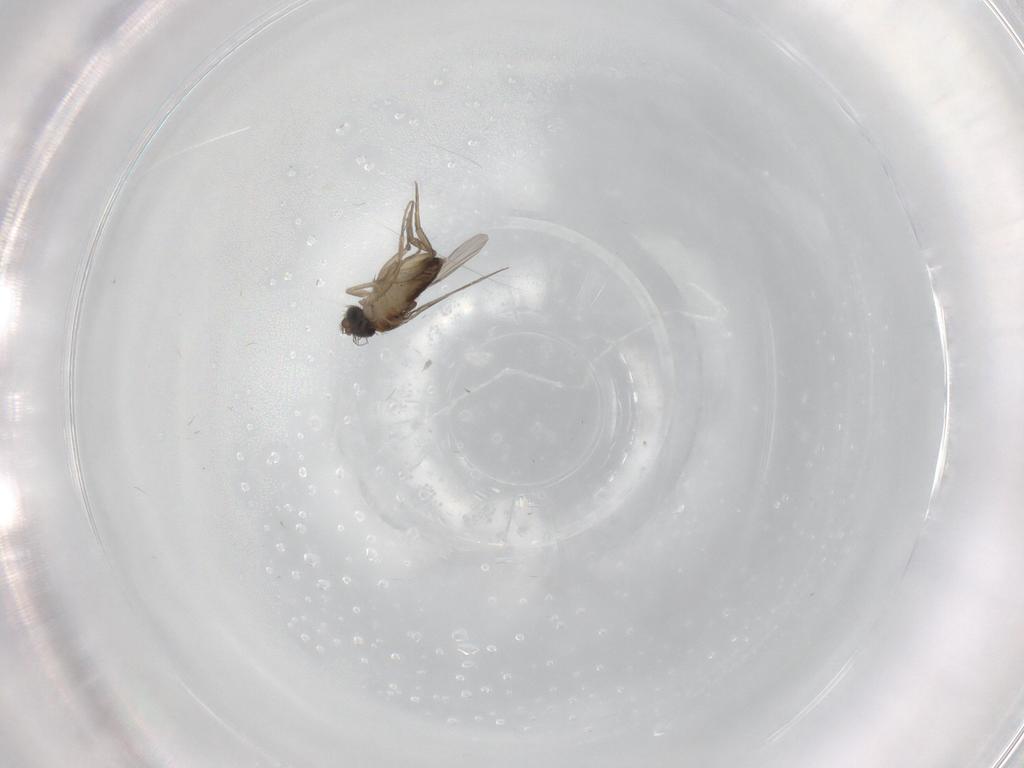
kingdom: Animalia
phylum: Arthropoda
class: Insecta
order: Diptera
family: Phoridae
